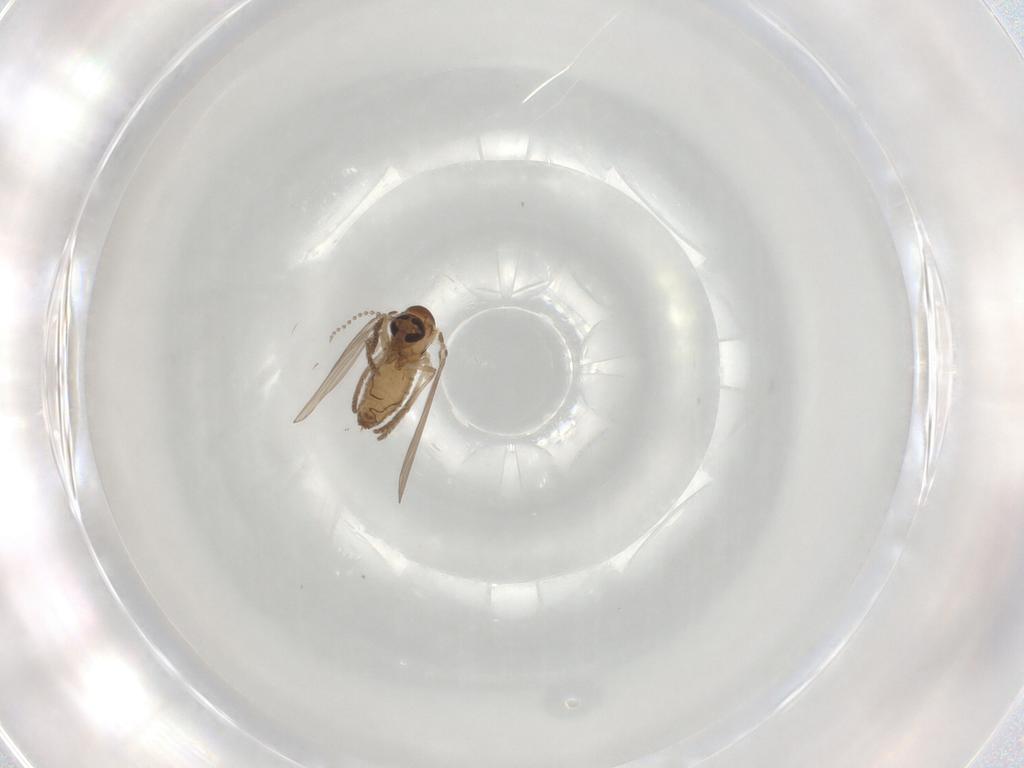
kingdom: Animalia
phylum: Arthropoda
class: Insecta
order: Diptera
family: Psychodidae
